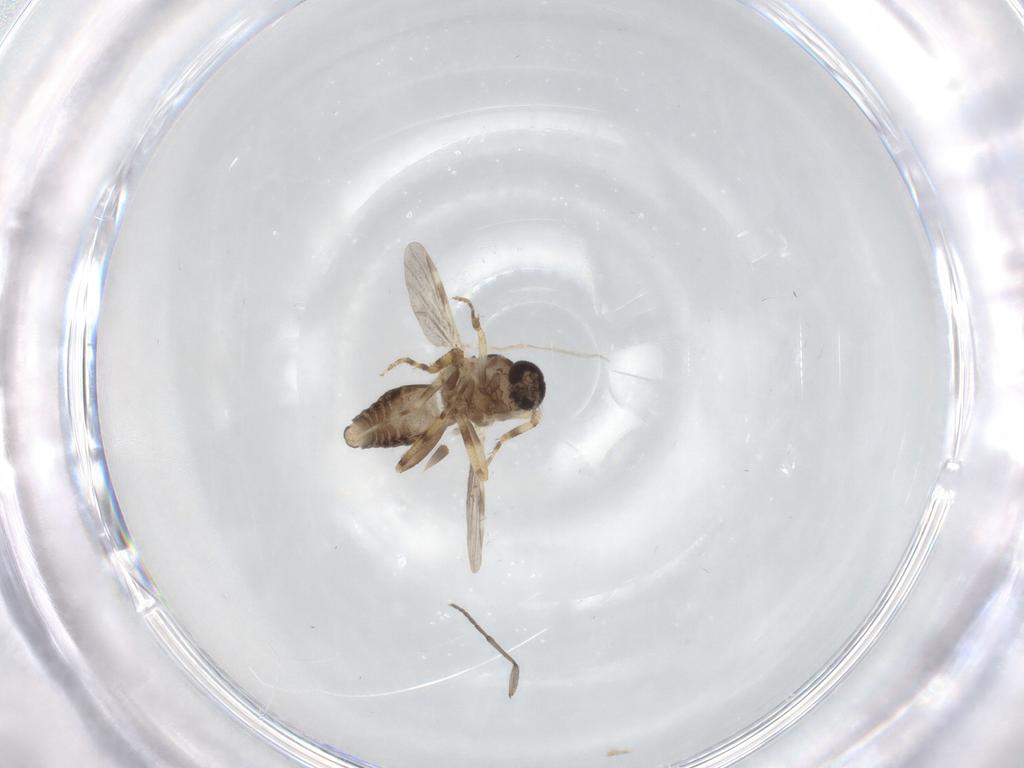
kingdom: Animalia
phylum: Arthropoda
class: Insecta
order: Diptera
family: Ceratopogonidae
